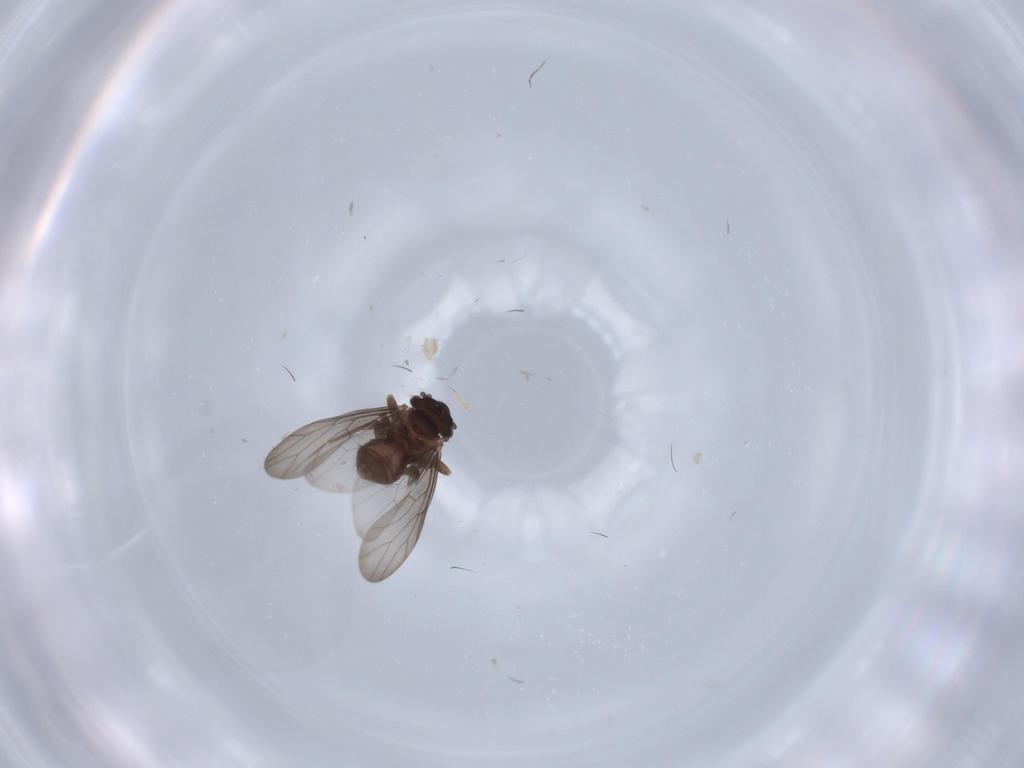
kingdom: Animalia
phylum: Arthropoda
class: Insecta
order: Psocodea
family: Lepidopsocidae
